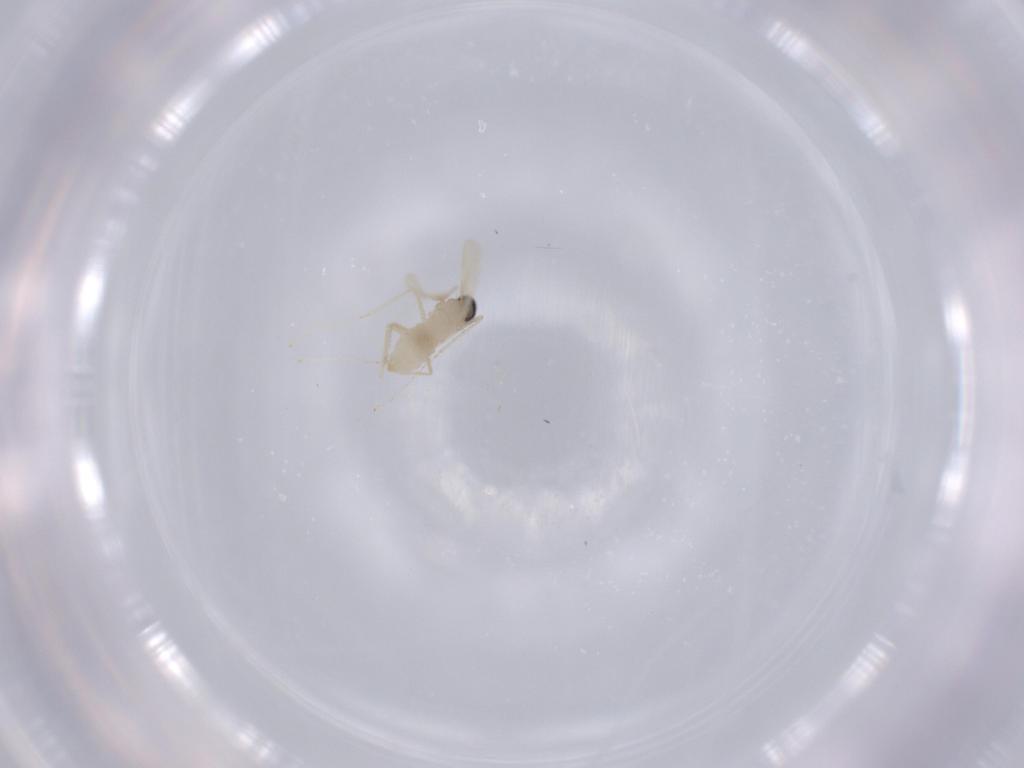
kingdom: Animalia
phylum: Arthropoda
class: Insecta
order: Diptera
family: Cecidomyiidae
